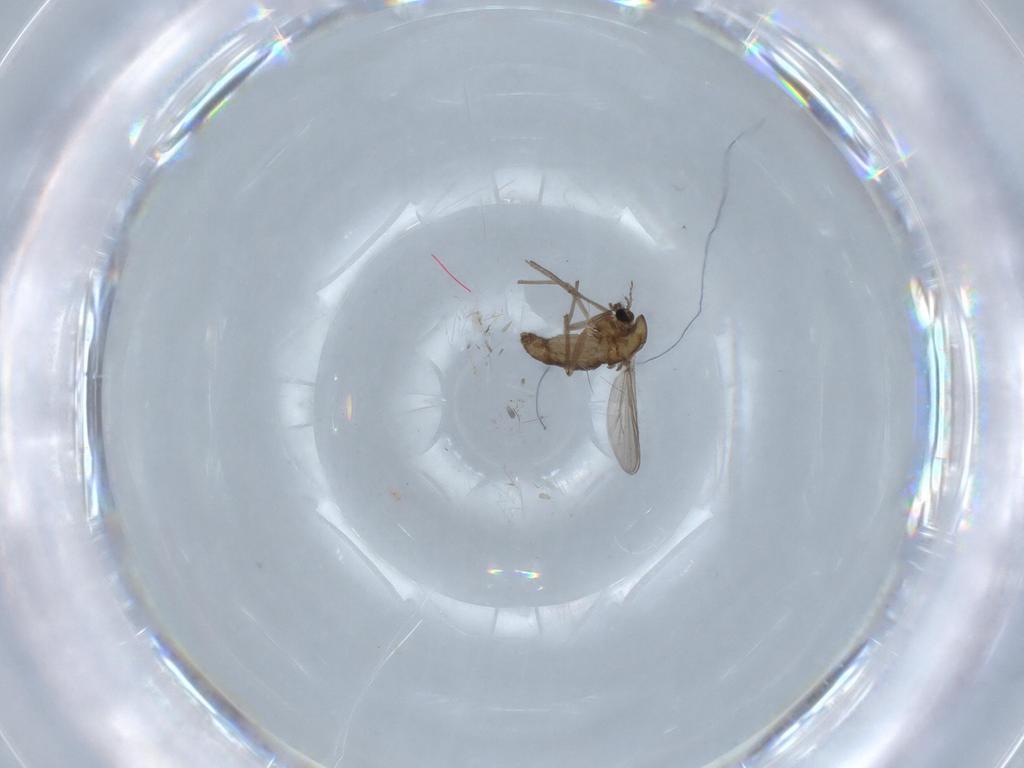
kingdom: Animalia
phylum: Arthropoda
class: Insecta
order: Diptera
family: Chironomidae
